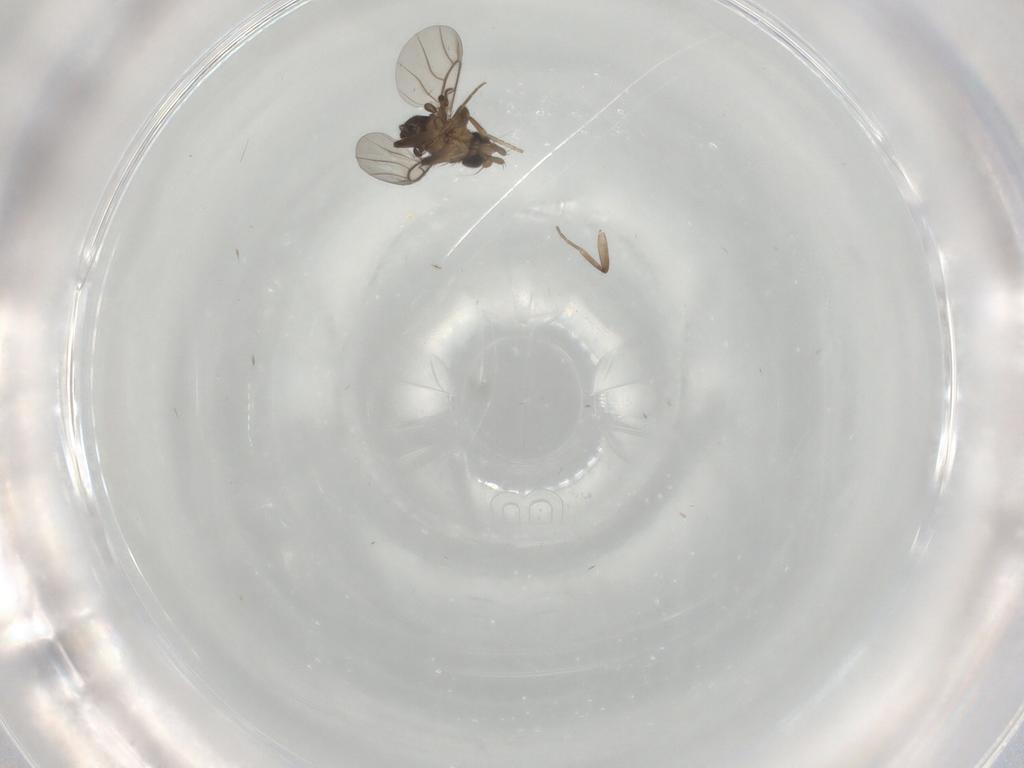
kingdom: Animalia
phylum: Arthropoda
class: Insecta
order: Diptera
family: Phoridae
